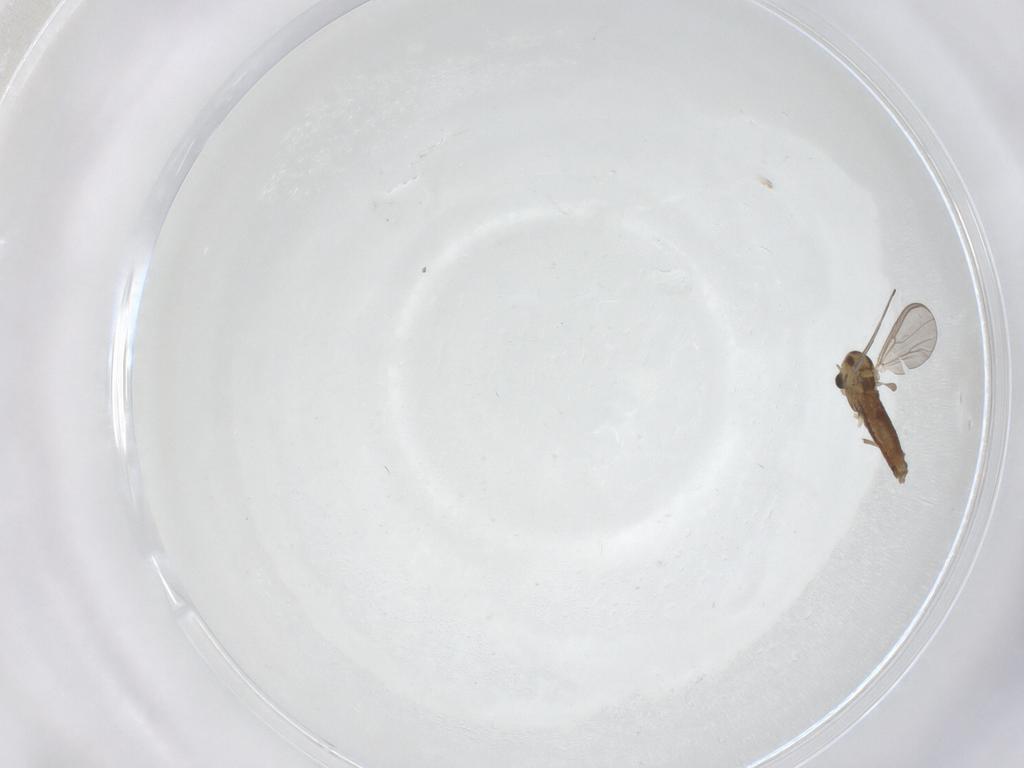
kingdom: Animalia
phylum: Arthropoda
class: Insecta
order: Diptera
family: Chironomidae
